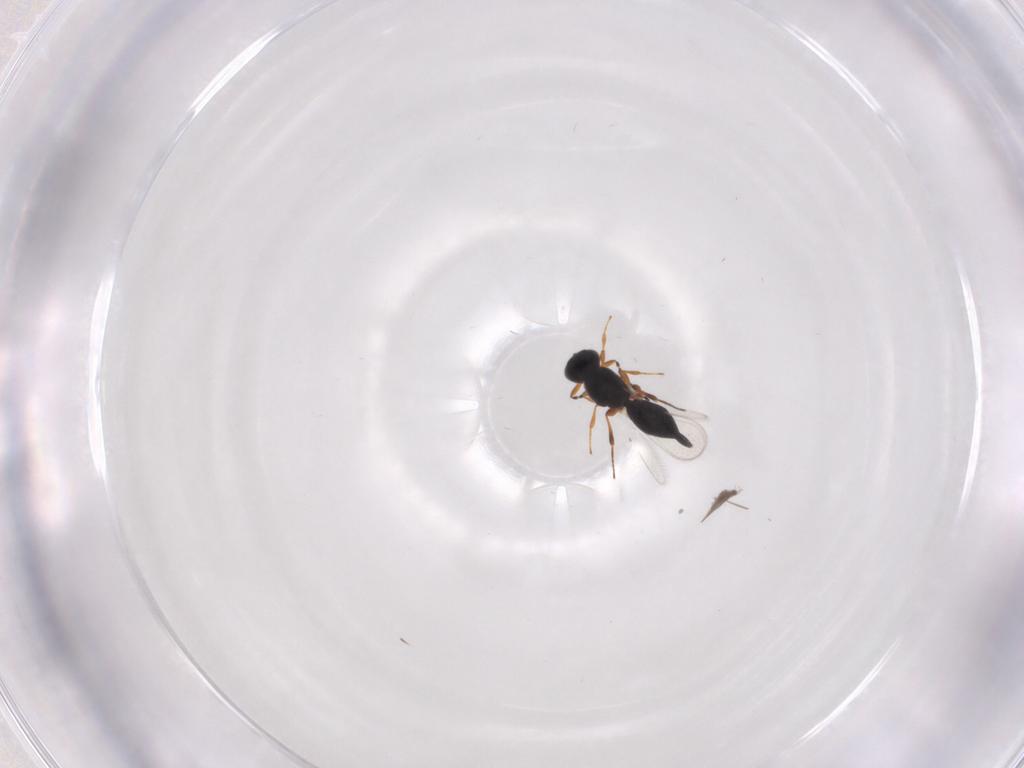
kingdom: Animalia
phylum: Arthropoda
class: Insecta
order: Hymenoptera
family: Platygastridae
